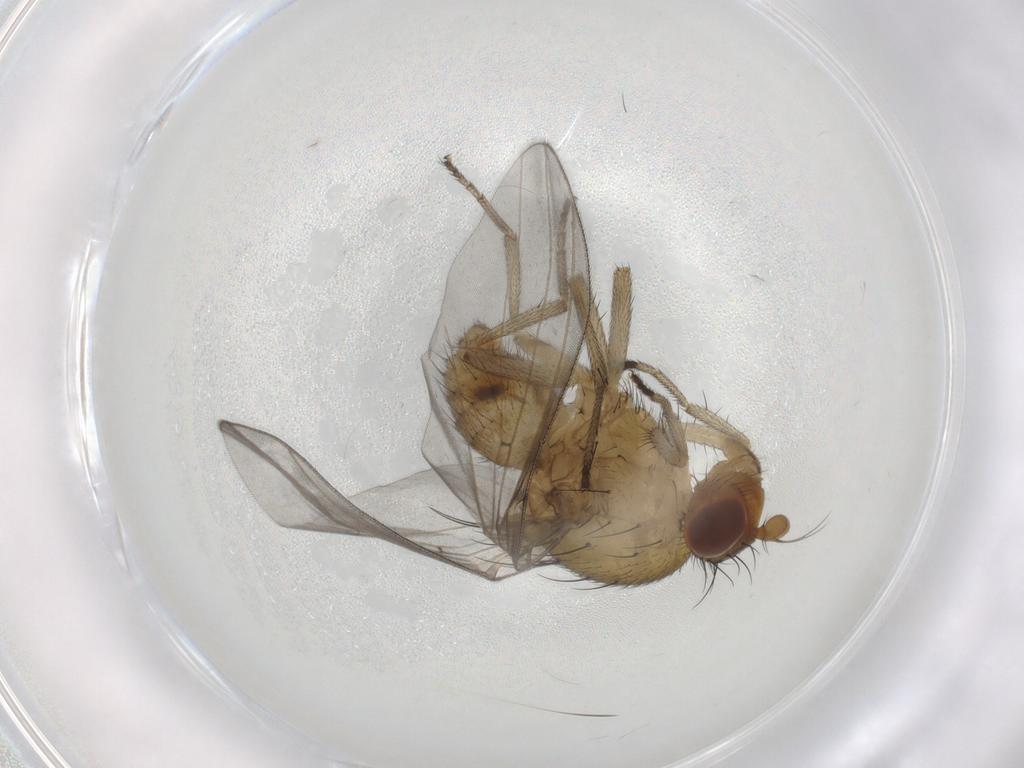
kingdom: Animalia
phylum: Arthropoda
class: Insecta
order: Diptera
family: Lauxaniidae
